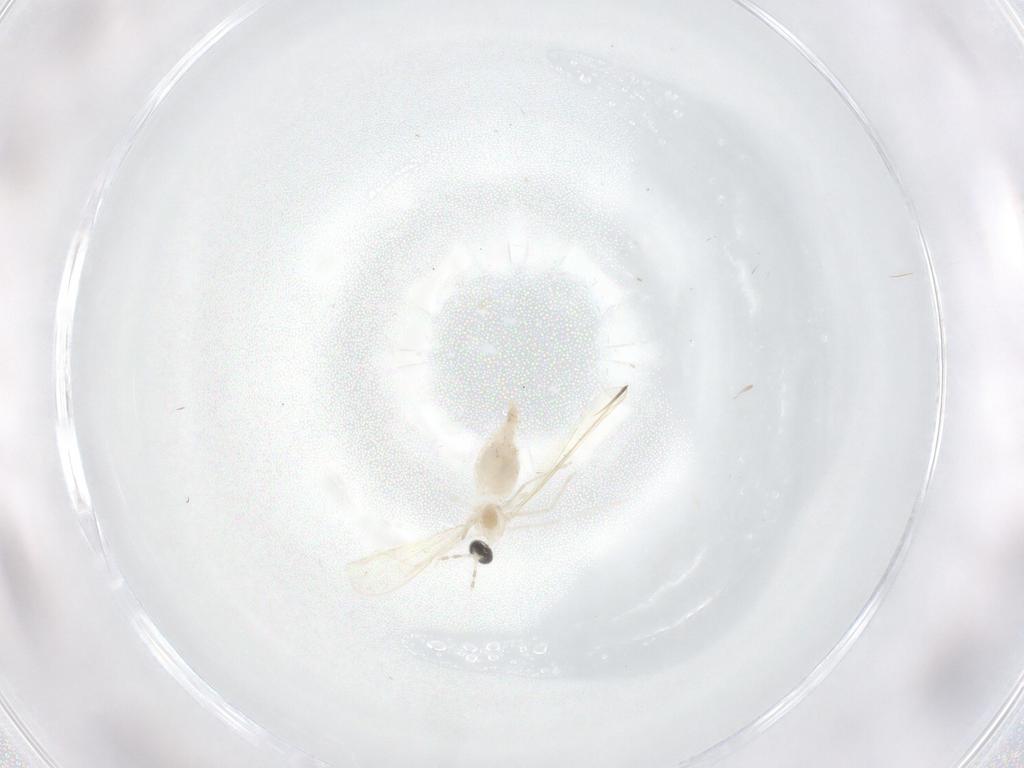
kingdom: Animalia
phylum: Arthropoda
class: Insecta
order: Diptera
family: Cecidomyiidae
